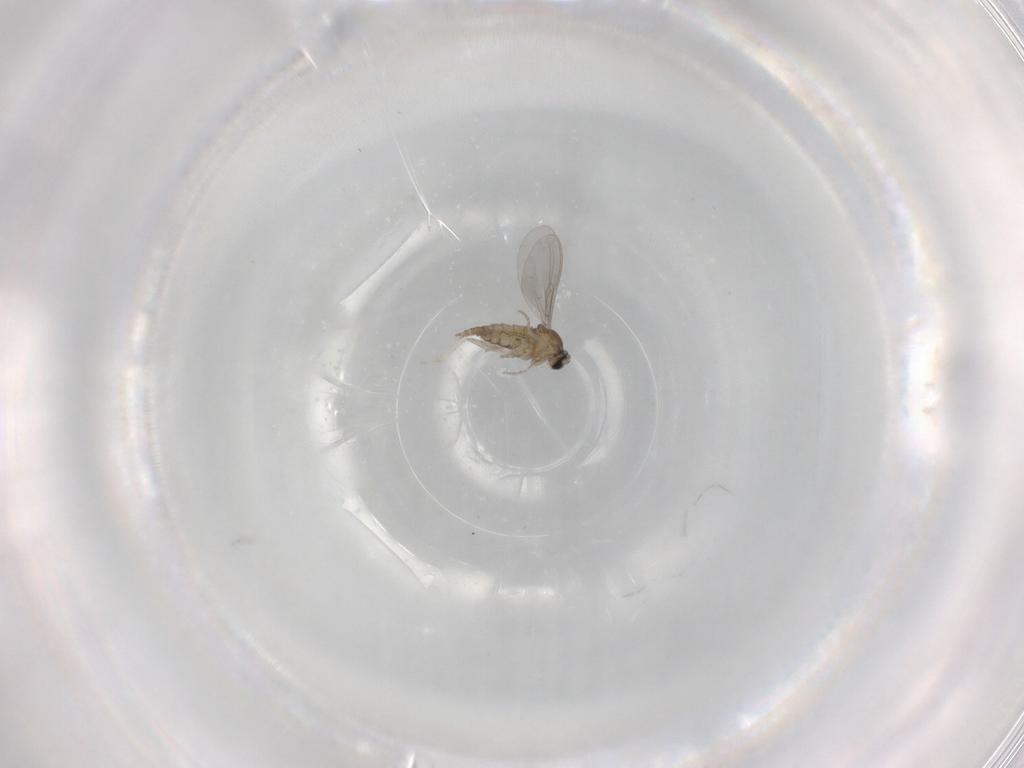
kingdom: Animalia
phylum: Arthropoda
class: Insecta
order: Diptera
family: Cecidomyiidae
